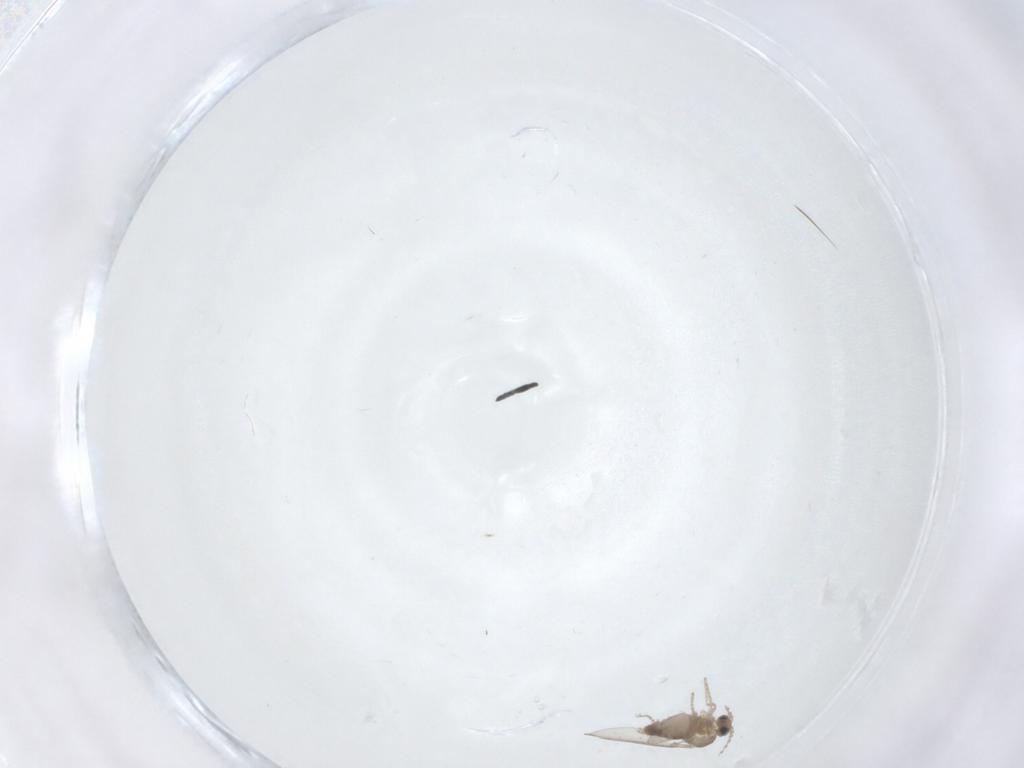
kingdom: Animalia
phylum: Arthropoda
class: Insecta
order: Diptera
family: Cecidomyiidae
